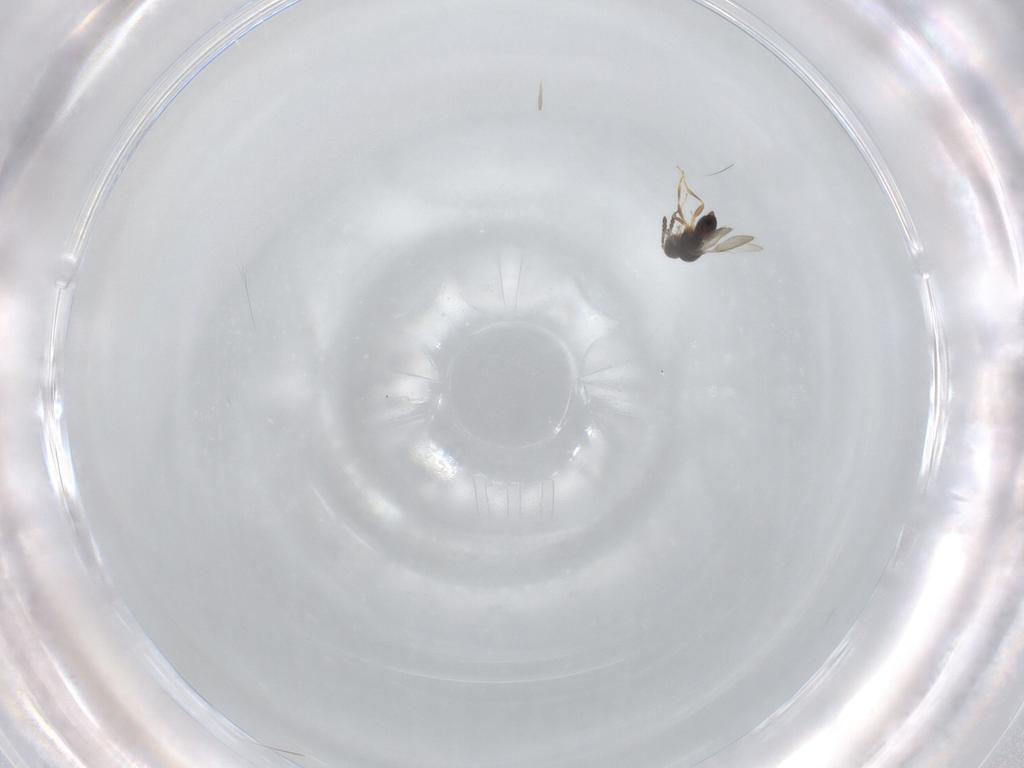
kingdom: Animalia
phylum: Arthropoda
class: Insecta
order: Hymenoptera
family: Ceraphronidae
